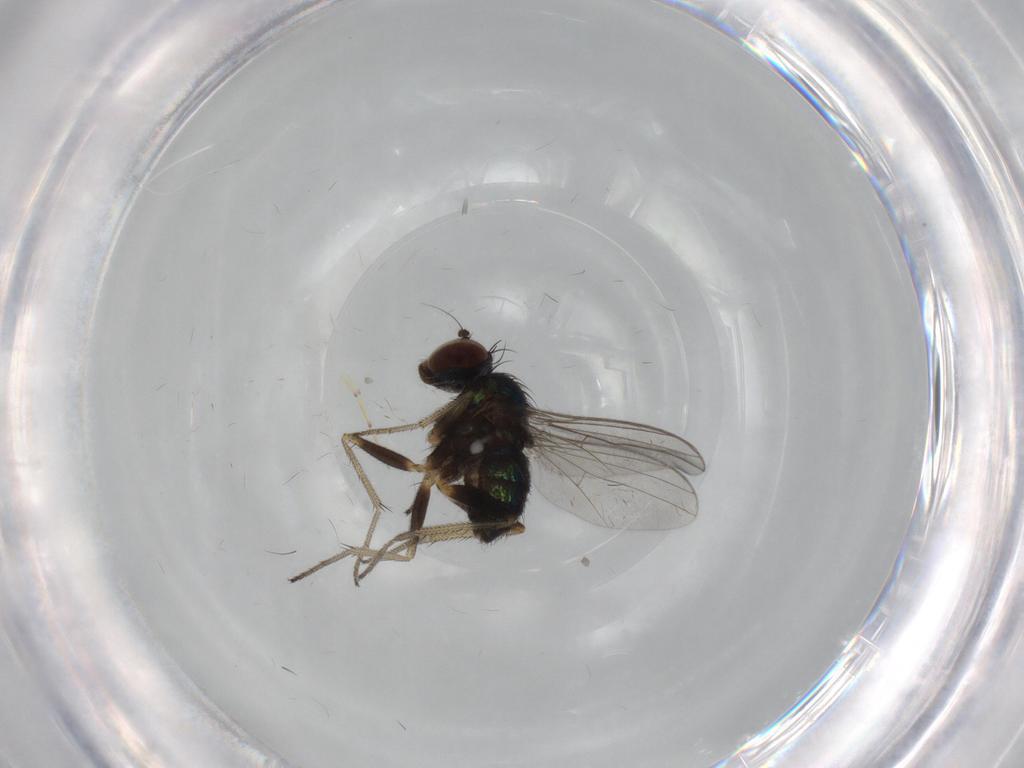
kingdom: Animalia
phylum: Arthropoda
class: Insecta
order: Diptera
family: Dolichopodidae
